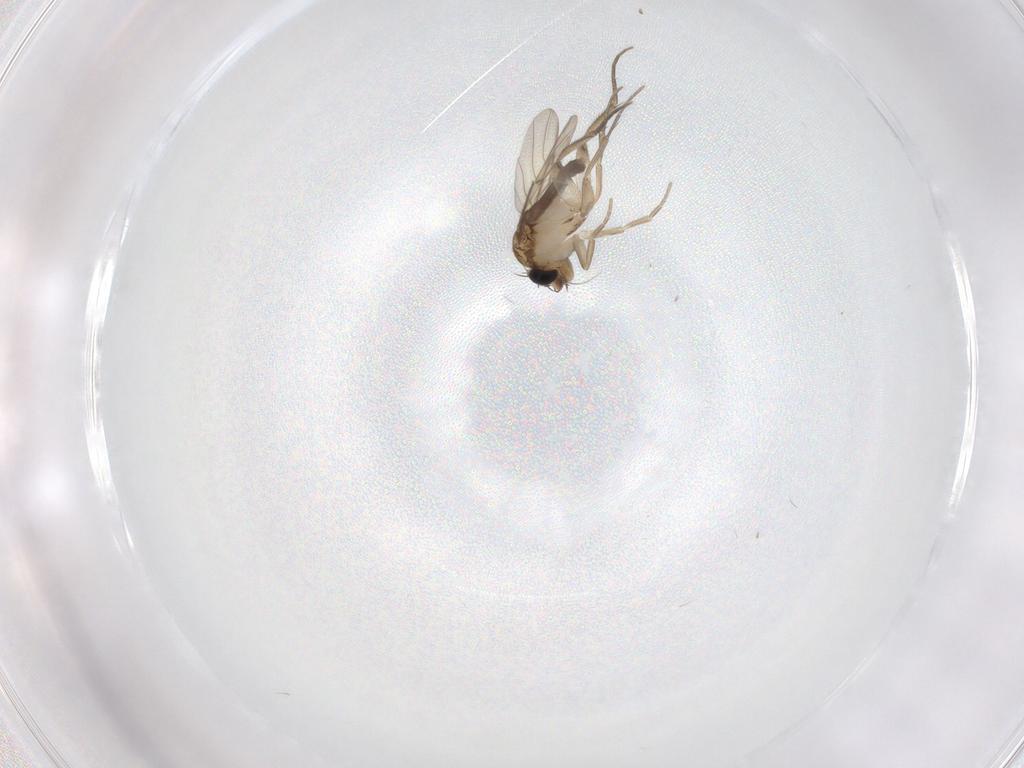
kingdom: Animalia
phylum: Arthropoda
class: Insecta
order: Diptera
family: Phoridae
